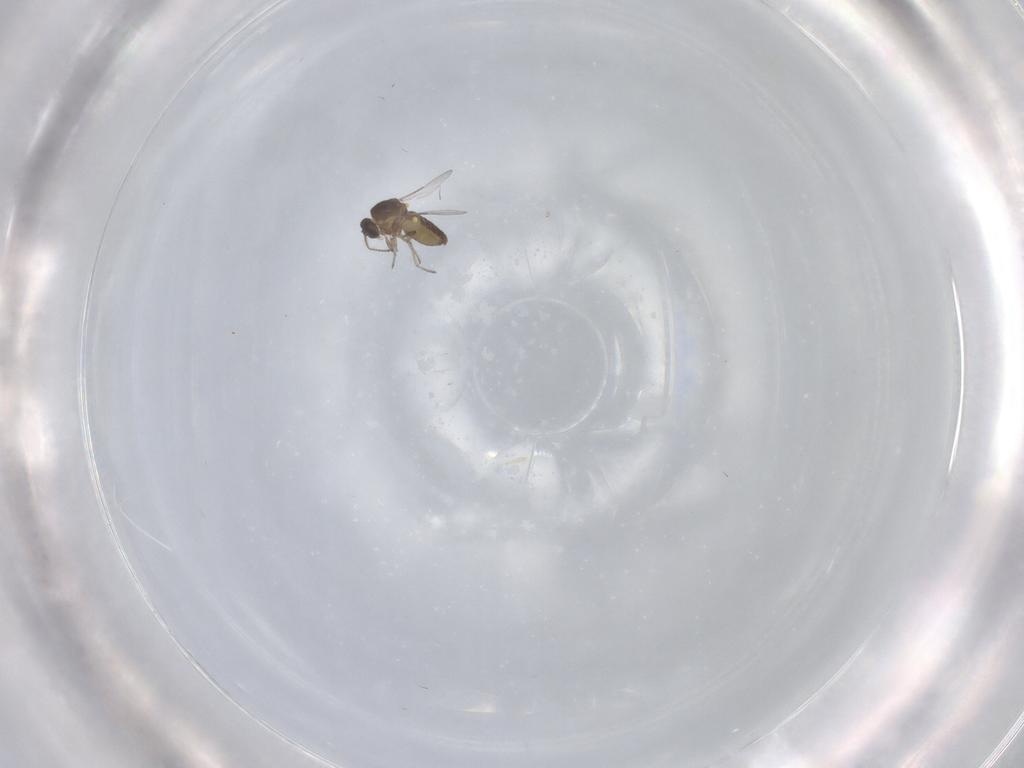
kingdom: Animalia
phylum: Arthropoda
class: Insecta
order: Diptera
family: Ceratopogonidae
